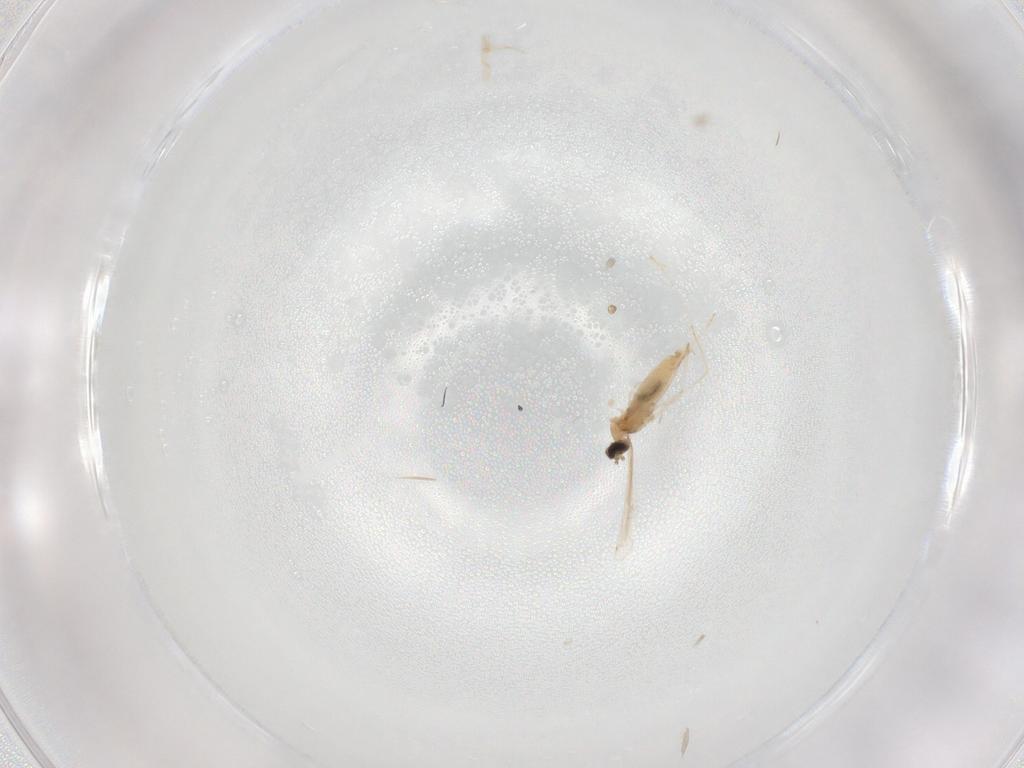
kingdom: Animalia
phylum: Arthropoda
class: Insecta
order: Diptera
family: Cecidomyiidae
